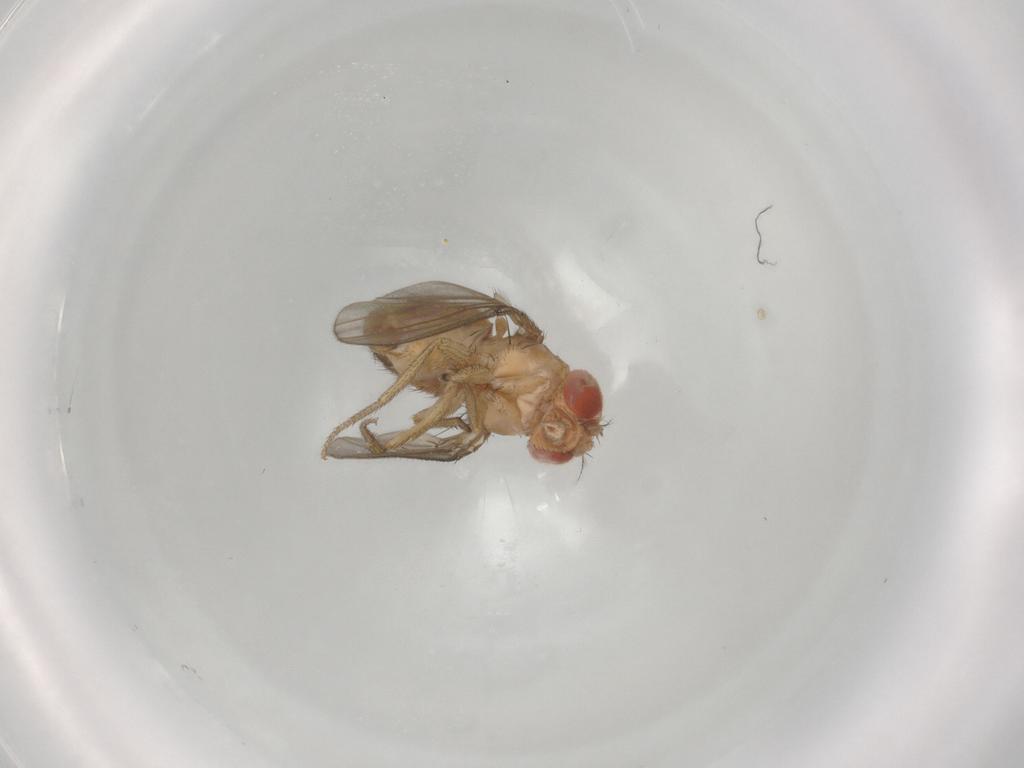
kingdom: Animalia
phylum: Arthropoda
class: Insecta
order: Diptera
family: Drosophilidae
